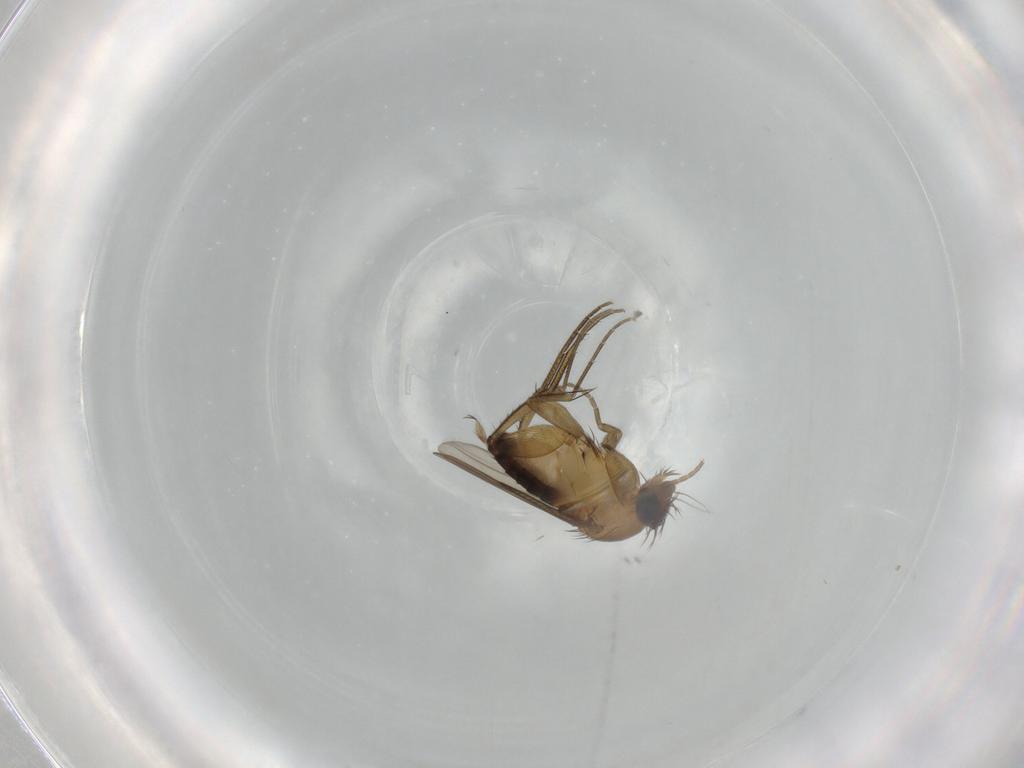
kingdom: Animalia
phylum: Arthropoda
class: Insecta
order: Diptera
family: Phoridae
